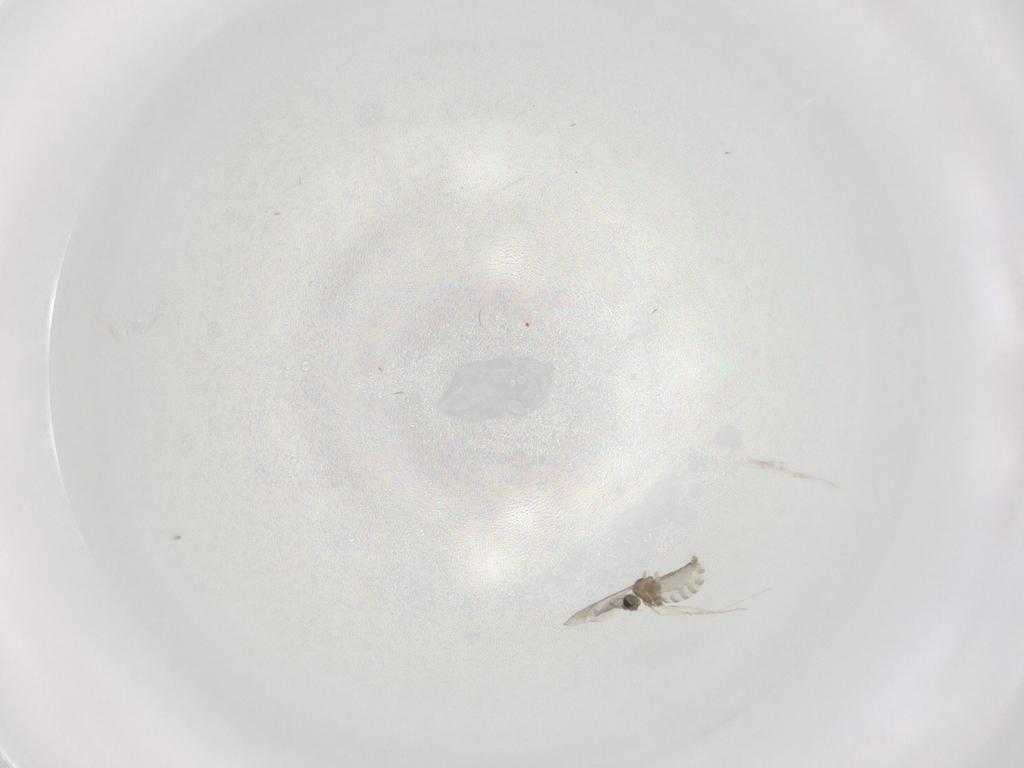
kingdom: Animalia
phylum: Arthropoda
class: Insecta
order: Diptera
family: Cecidomyiidae
